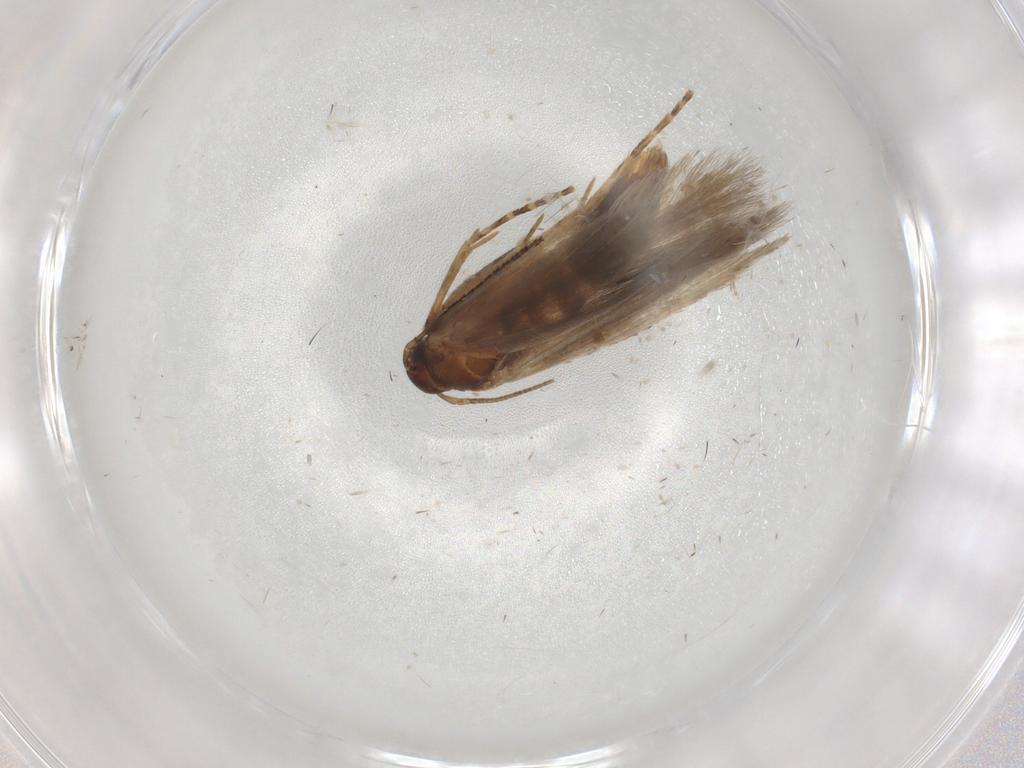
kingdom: Animalia
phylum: Arthropoda
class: Insecta
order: Lepidoptera
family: Gelechiidae
